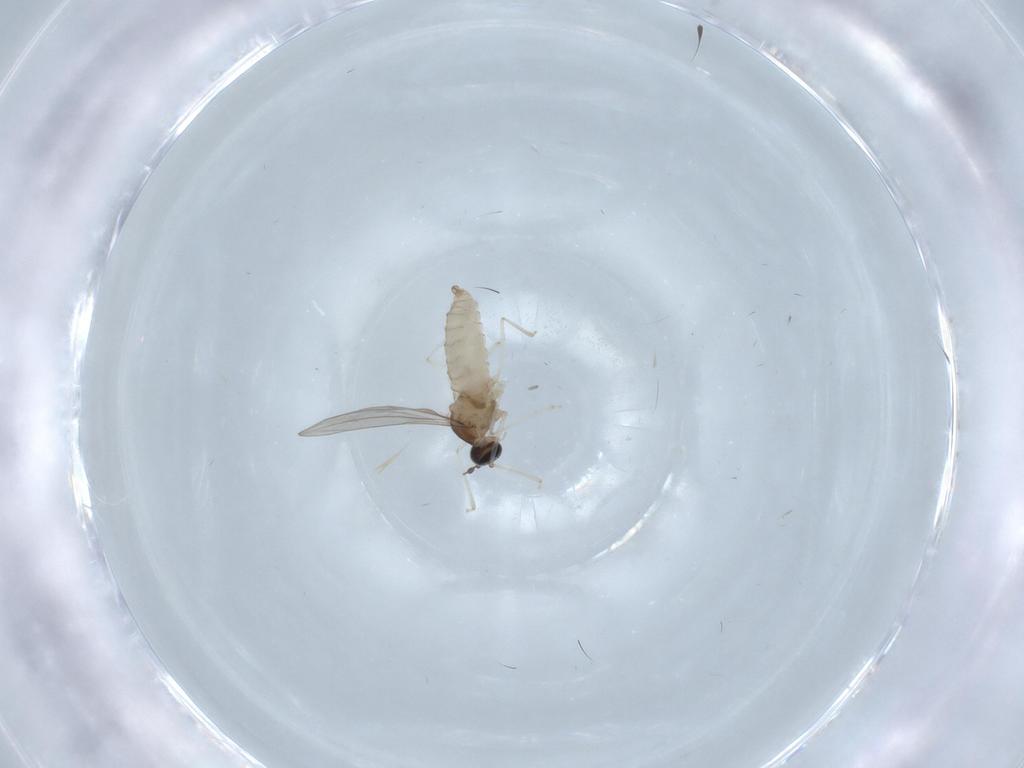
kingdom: Animalia
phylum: Arthropoda
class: Insecta
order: Diptera
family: Cecidomyiidae
